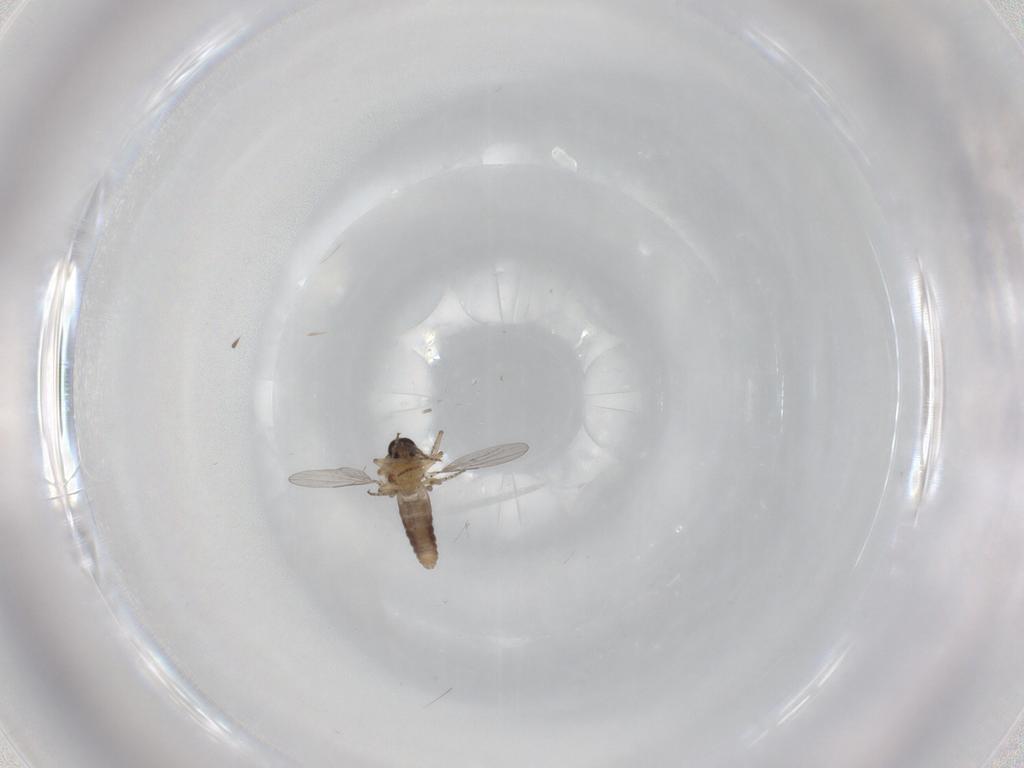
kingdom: Animalia
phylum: Arthropoda
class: Insecta
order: Diptera
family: Ceratopogonidae
